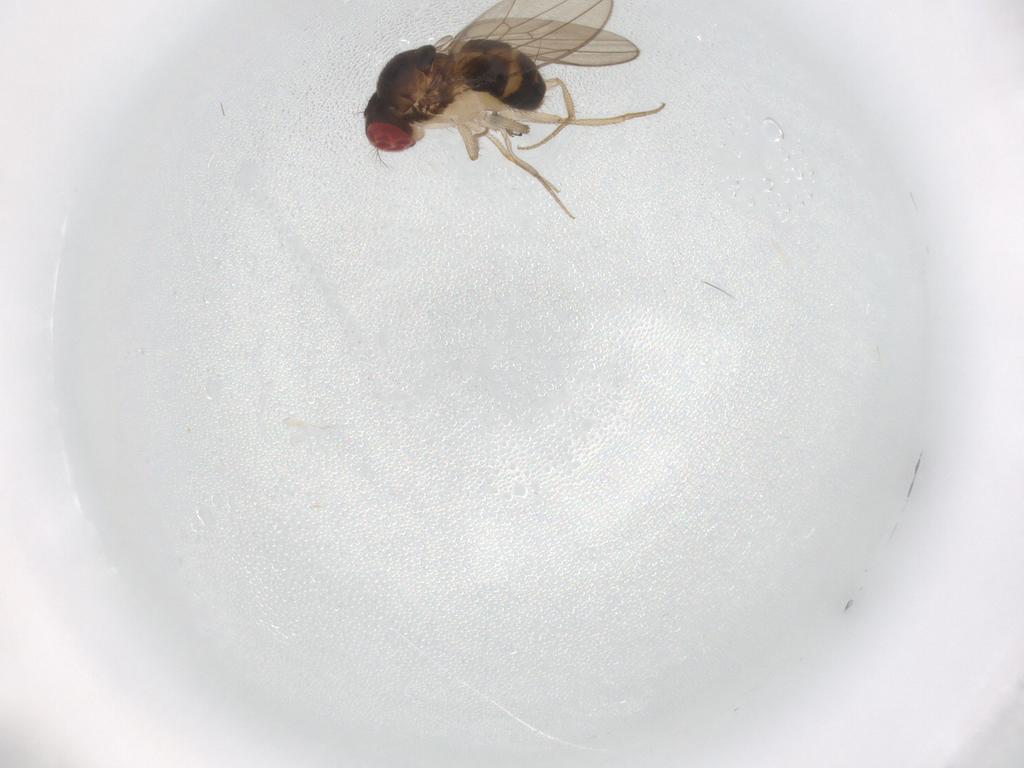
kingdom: Animalia
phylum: Arthropoda
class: Insecta
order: Diptera
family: Drosophilidae
